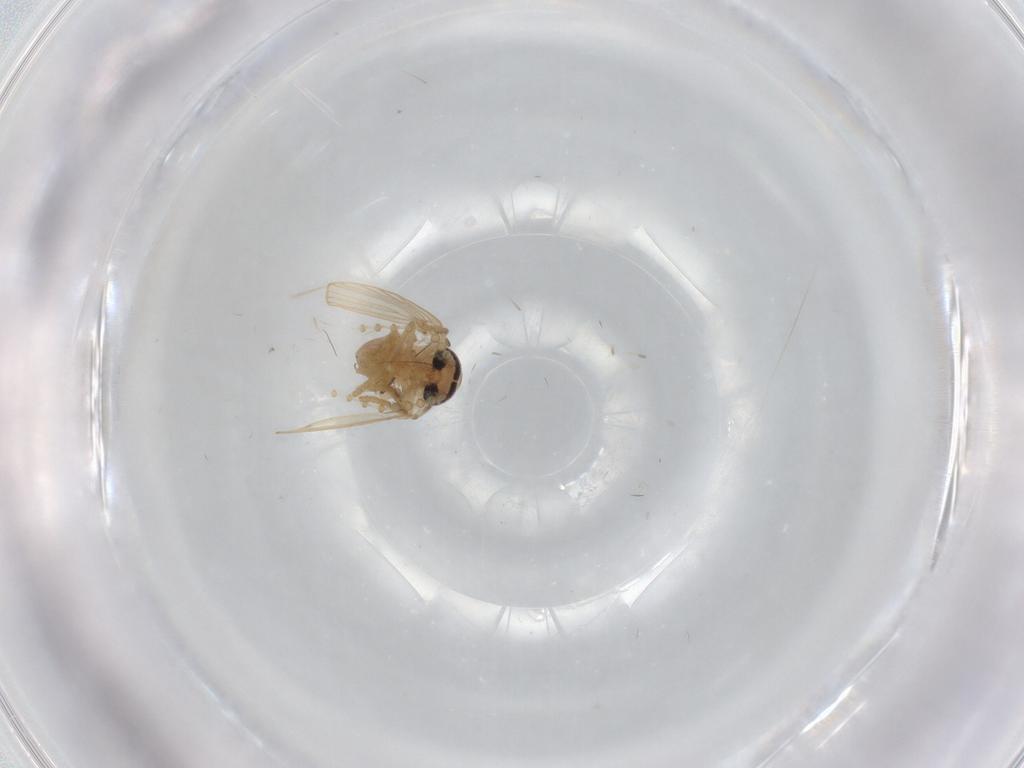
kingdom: Animalia
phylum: Arthropoda
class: Insecta
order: Diptera
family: Psychodidae
